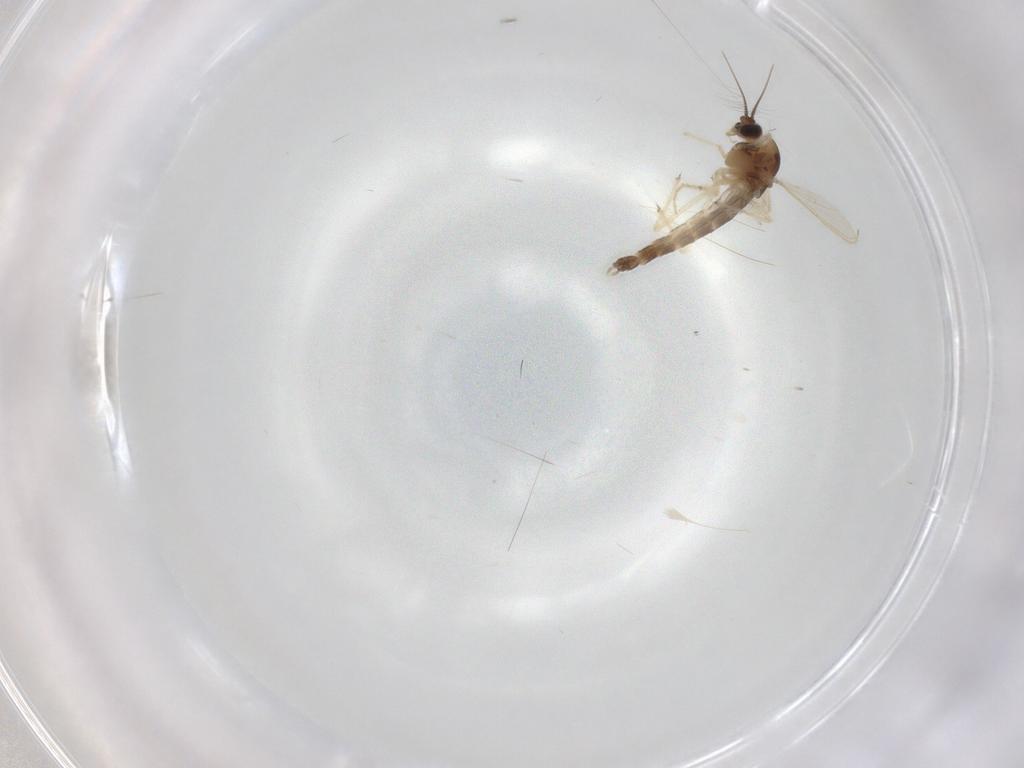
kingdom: Animalia
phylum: Arthropoda
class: Insecta
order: Diptera
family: Chironomidae
